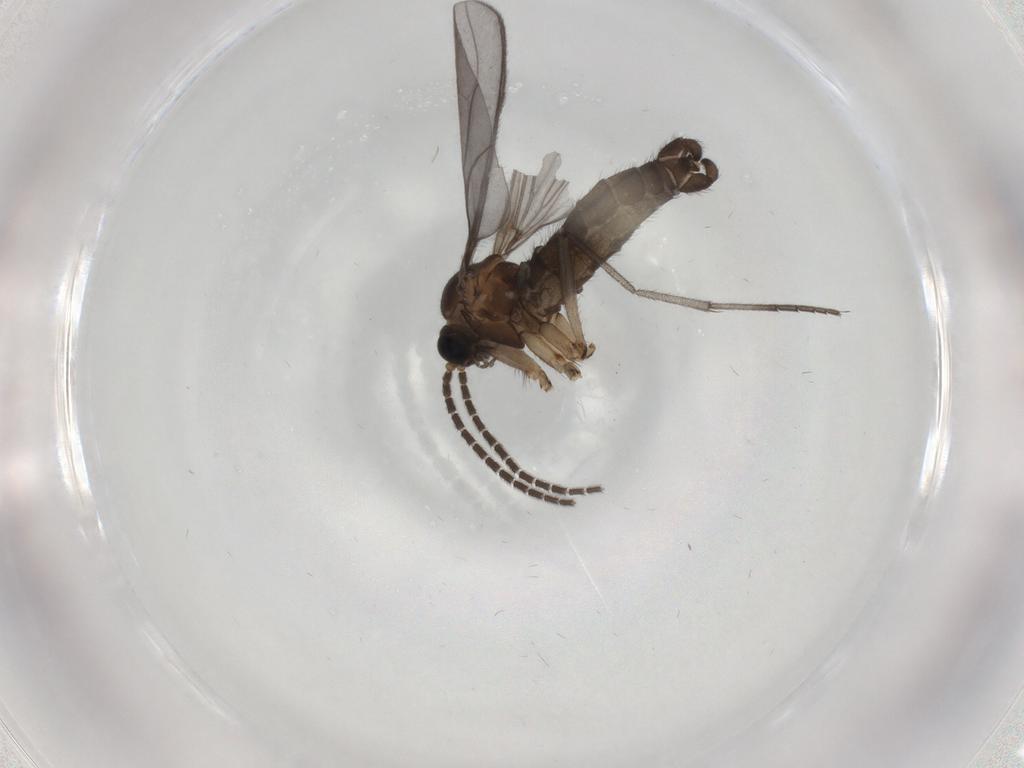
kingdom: Animalia
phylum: Arthropoda
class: Insecta
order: Diptera
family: Sciaridae
